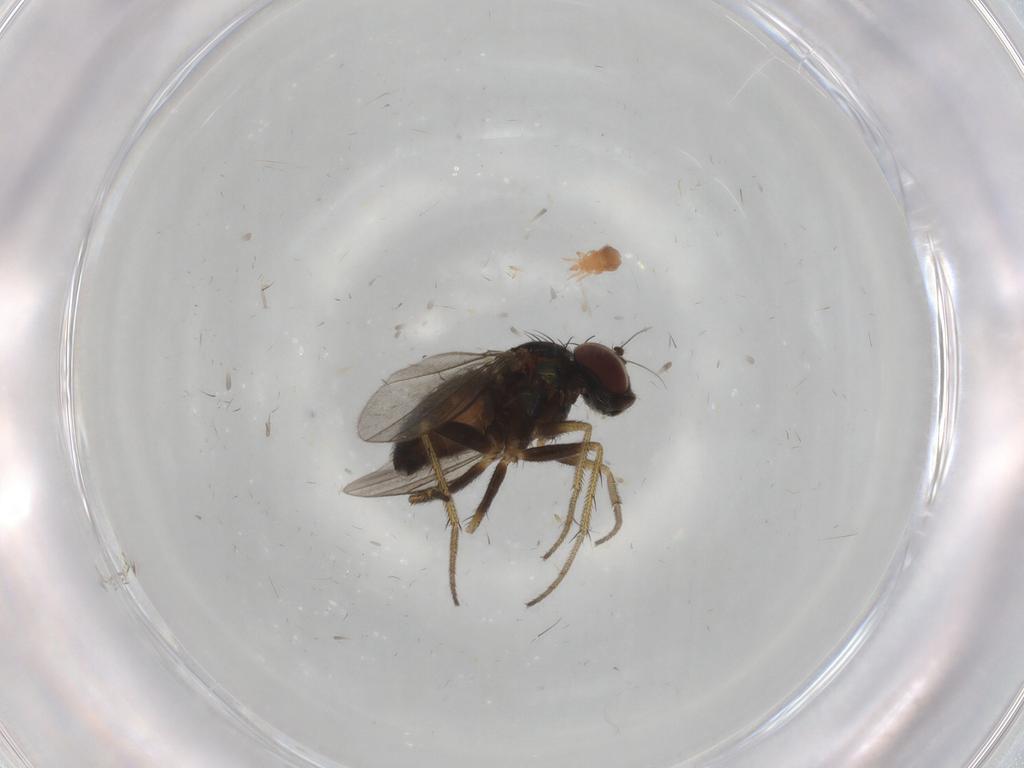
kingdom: Animalia
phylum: Arthropoda
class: Insecta
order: Diptera
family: Dolichopodidae
